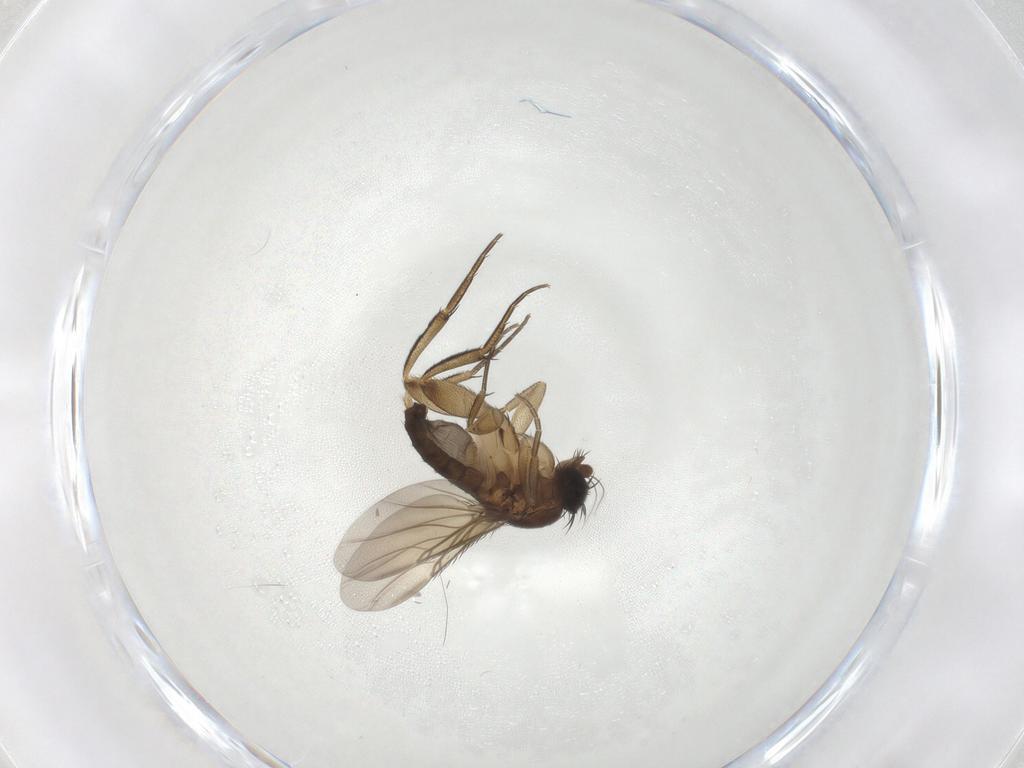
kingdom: Animalia
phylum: Arthropoda
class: Insecta
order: Diptera
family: Phoridae
